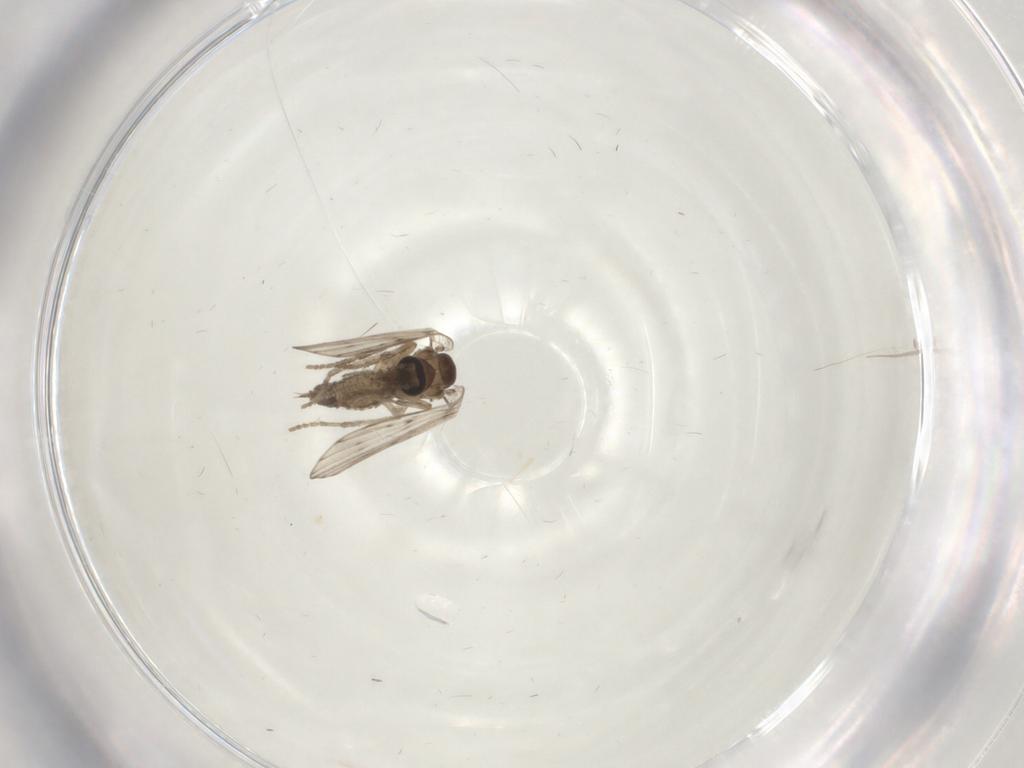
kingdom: Animalia
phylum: Arthropoda
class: Insecta
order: Diptera
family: Psychodidae
